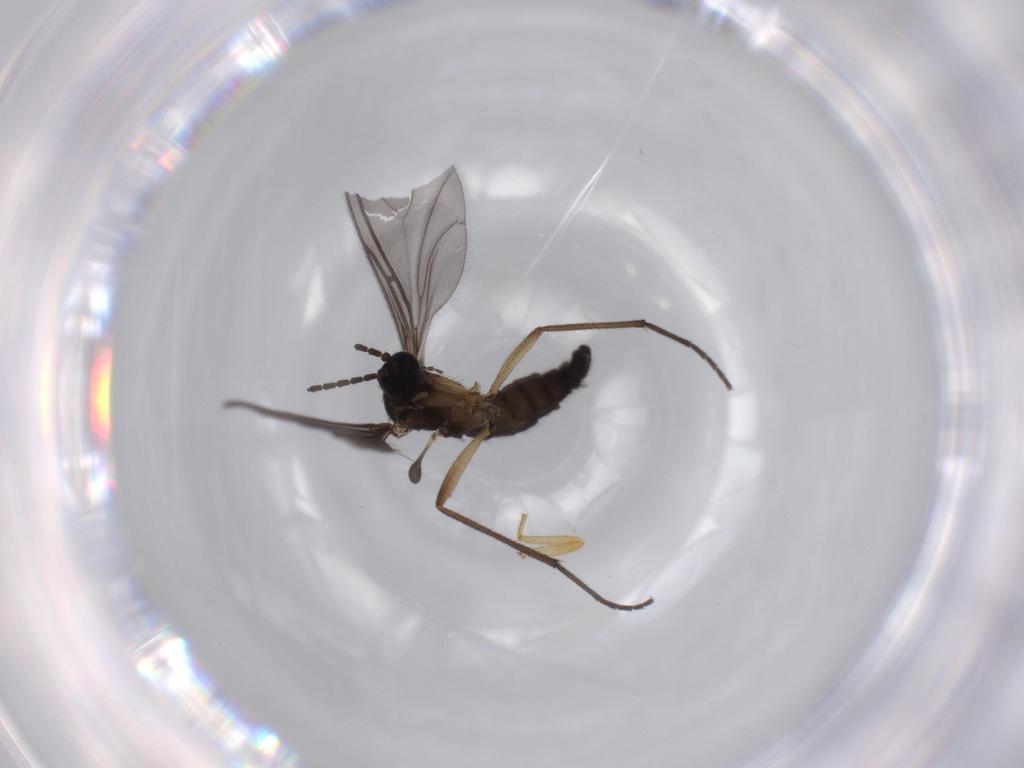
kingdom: Animalia
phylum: Arthropoda
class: Insecta
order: Diptera
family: Sciaridae
